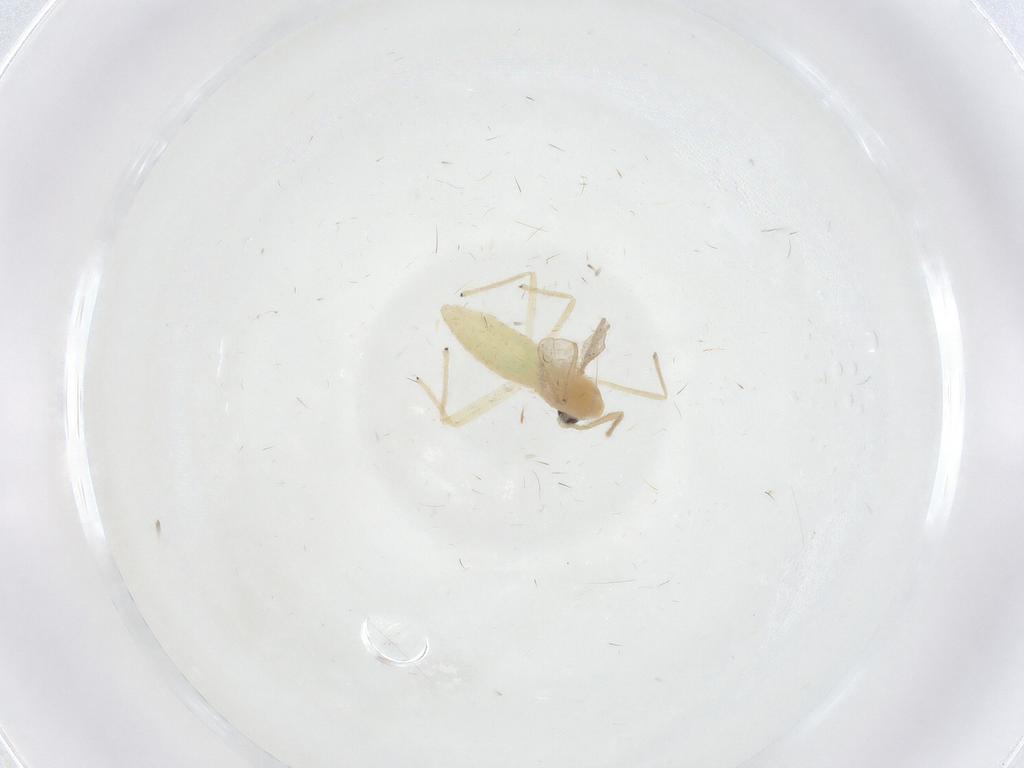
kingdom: Animalia
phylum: Arthropoda
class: Insecta
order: Diptera
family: Chironomidae
